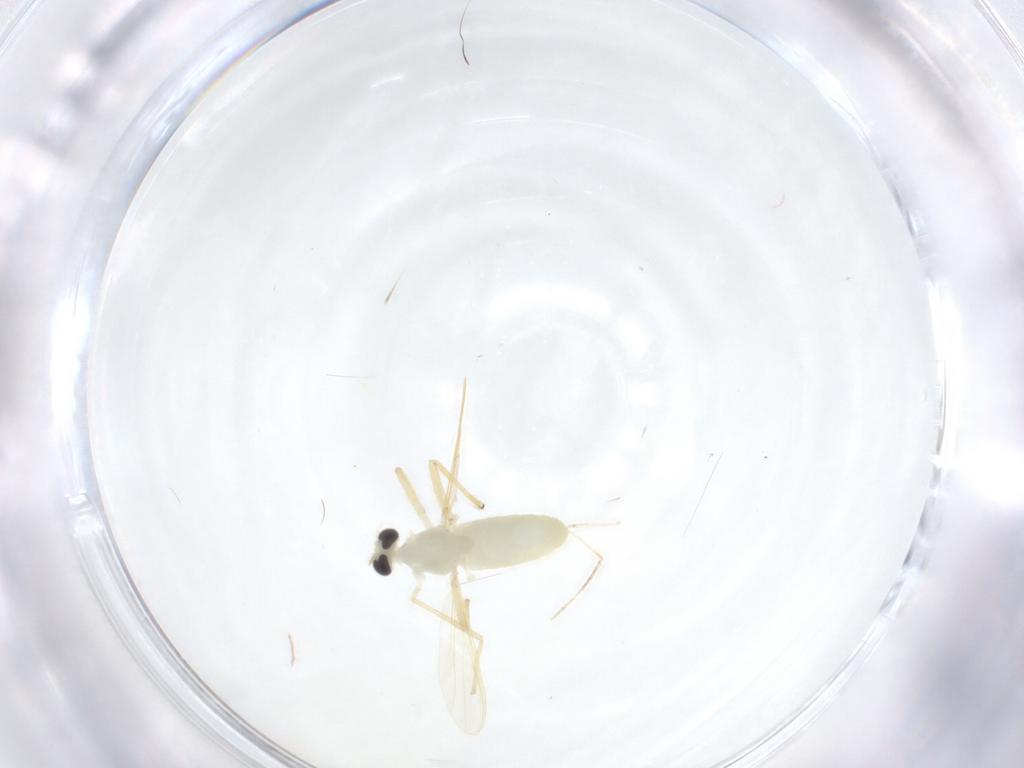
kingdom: Animalia
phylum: Arthropoda
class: Insecta
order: Diptera
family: Chironomidae
